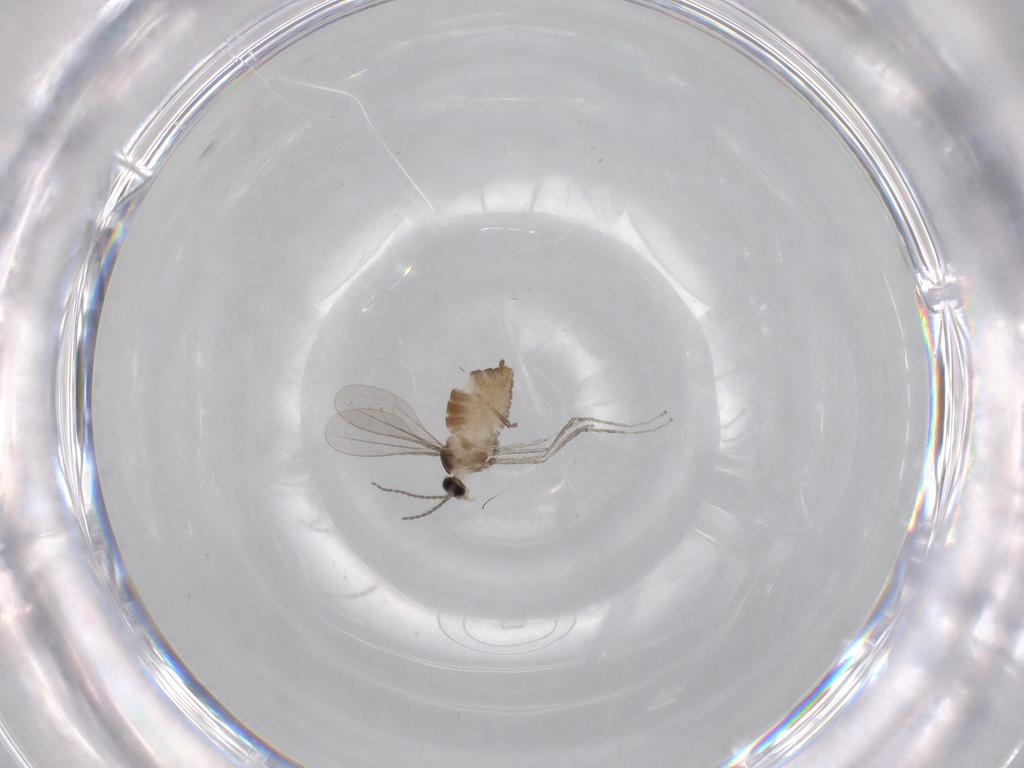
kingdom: Animalia
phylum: Arthropoda
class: Insecta
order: Diptera
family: Cecidomyiidae
